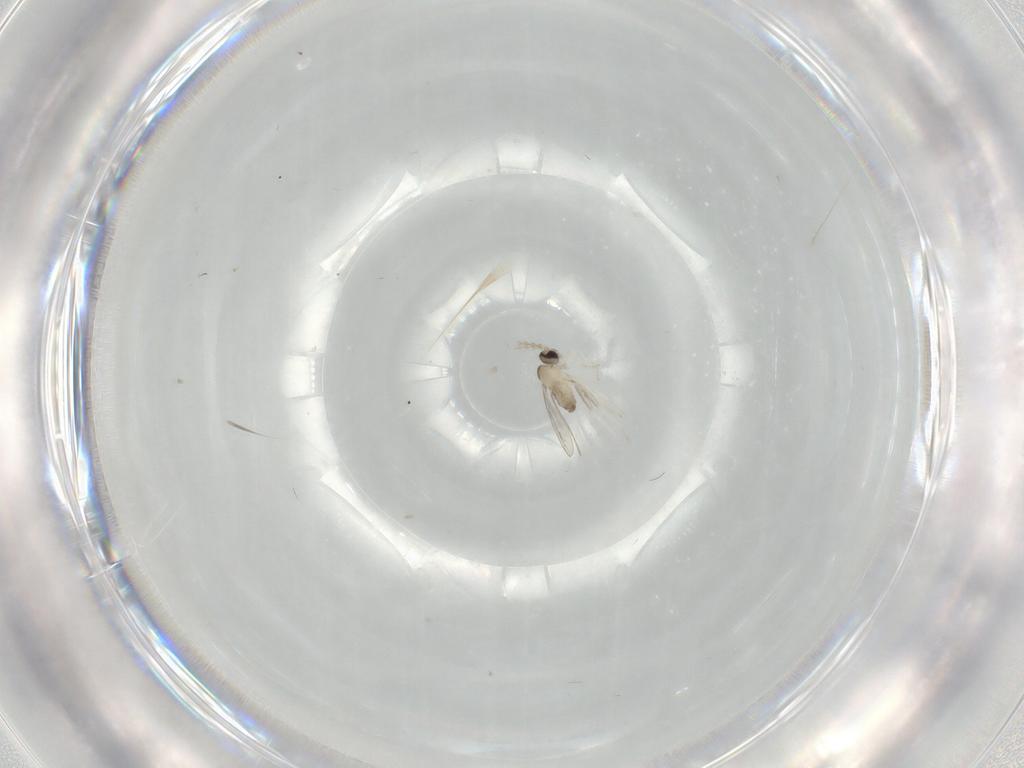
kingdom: Animalia
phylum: Arthropoda
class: Insecta
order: Diptera
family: Cecidomyiidae
